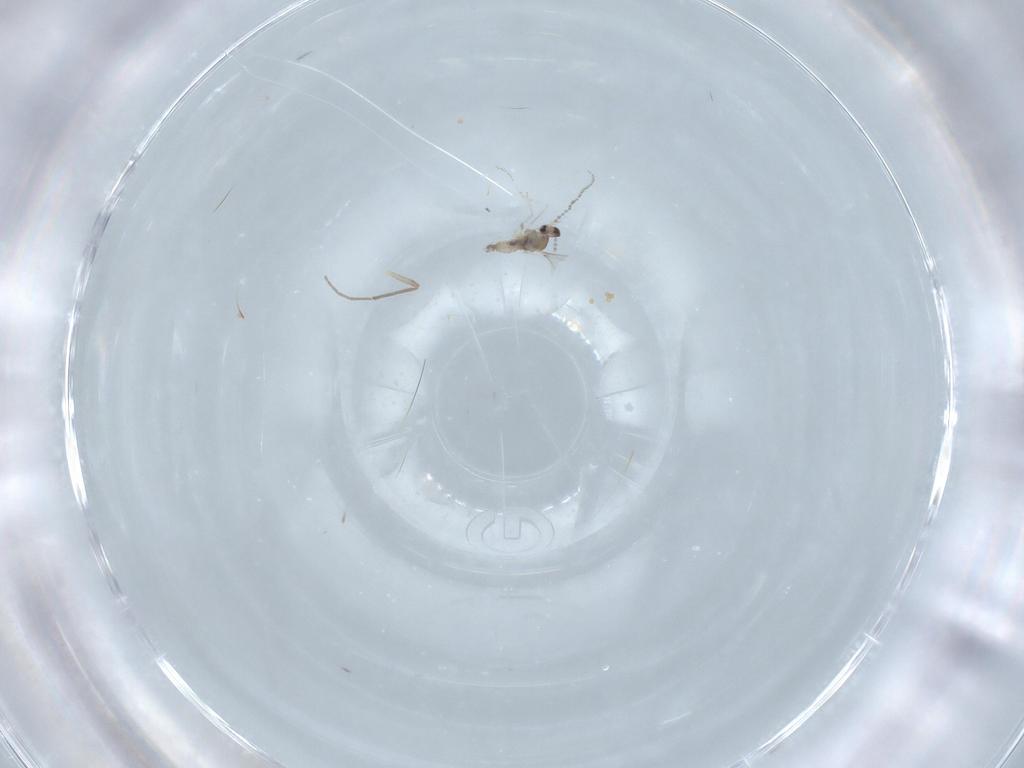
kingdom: Animalia
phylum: Arthropoda
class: Insecta
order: Diptera
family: Cecidomyiidae
